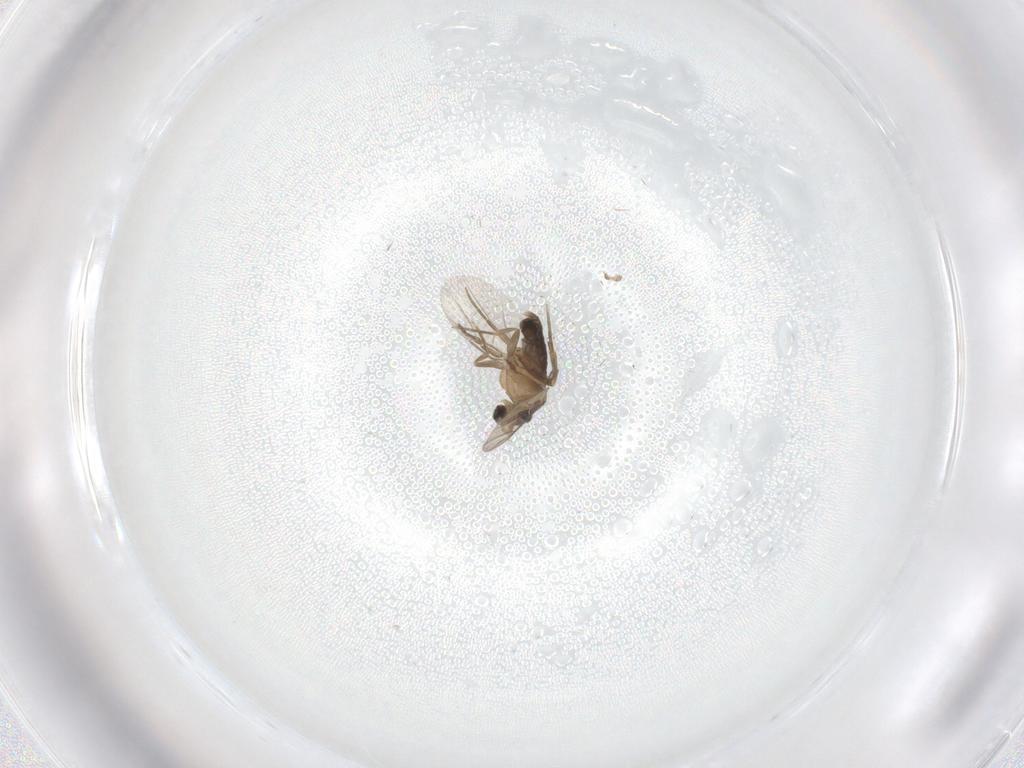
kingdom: Animalia
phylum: Arthropoda
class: Insecta
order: Diptera
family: Phoridae
